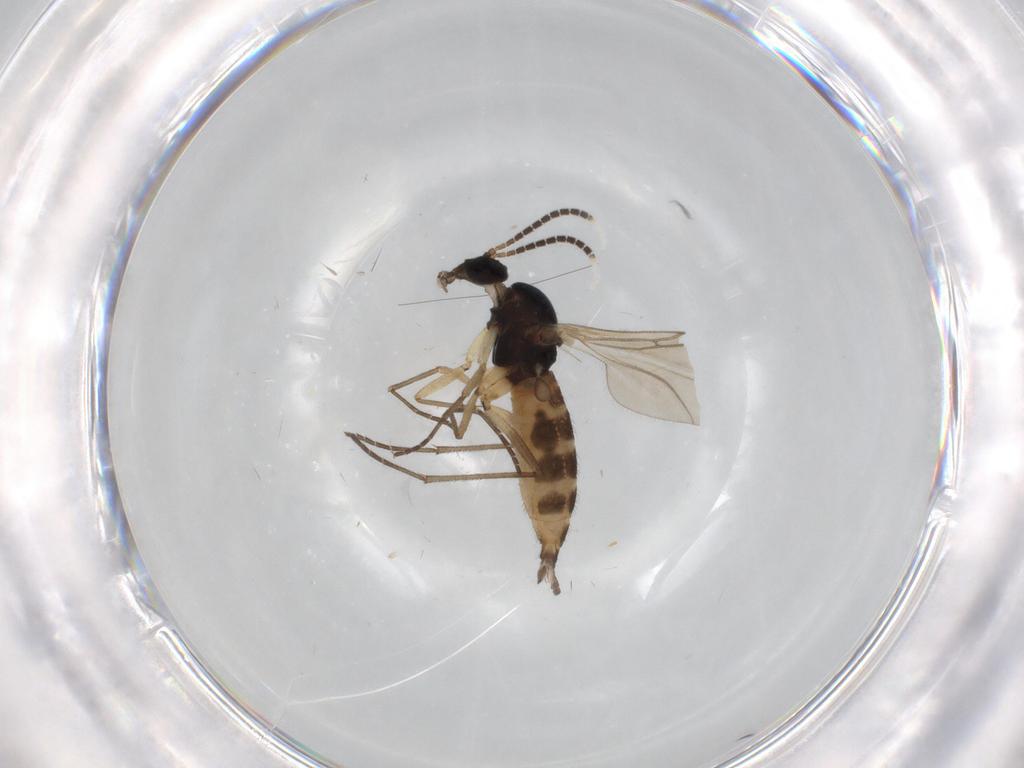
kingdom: Animalia
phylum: Arthropoda
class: Insecta
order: Diptera
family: Sciaridae
